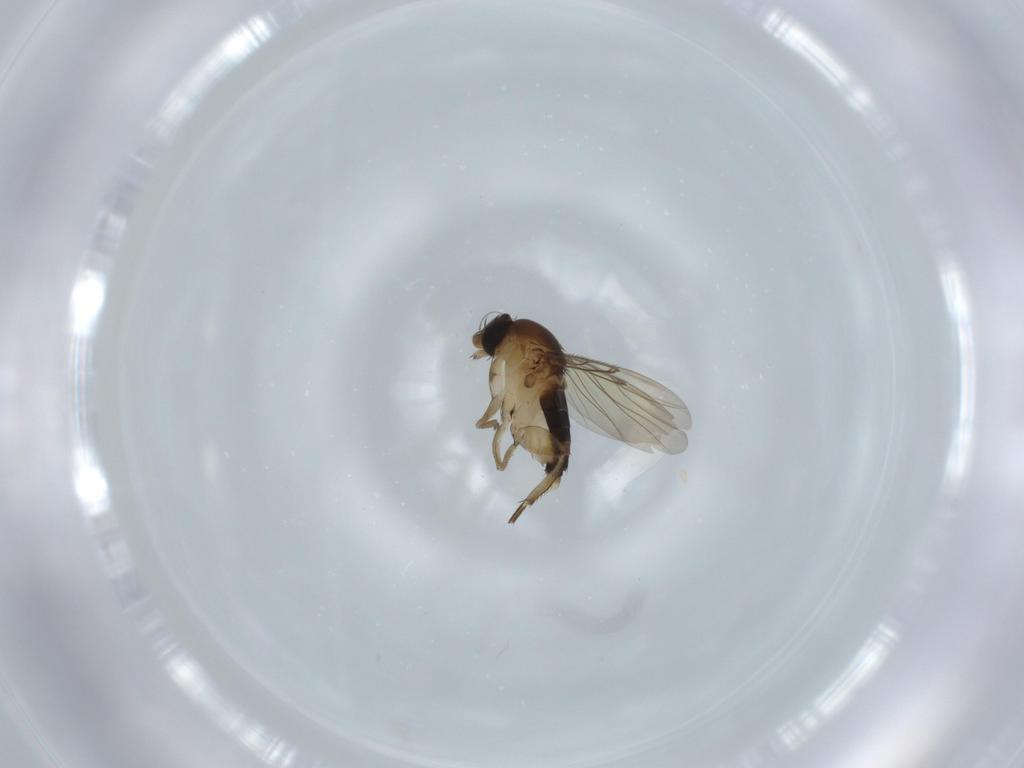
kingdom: Animalia
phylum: Arthropoda
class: Insecta
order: Diptera
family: Phoridae
